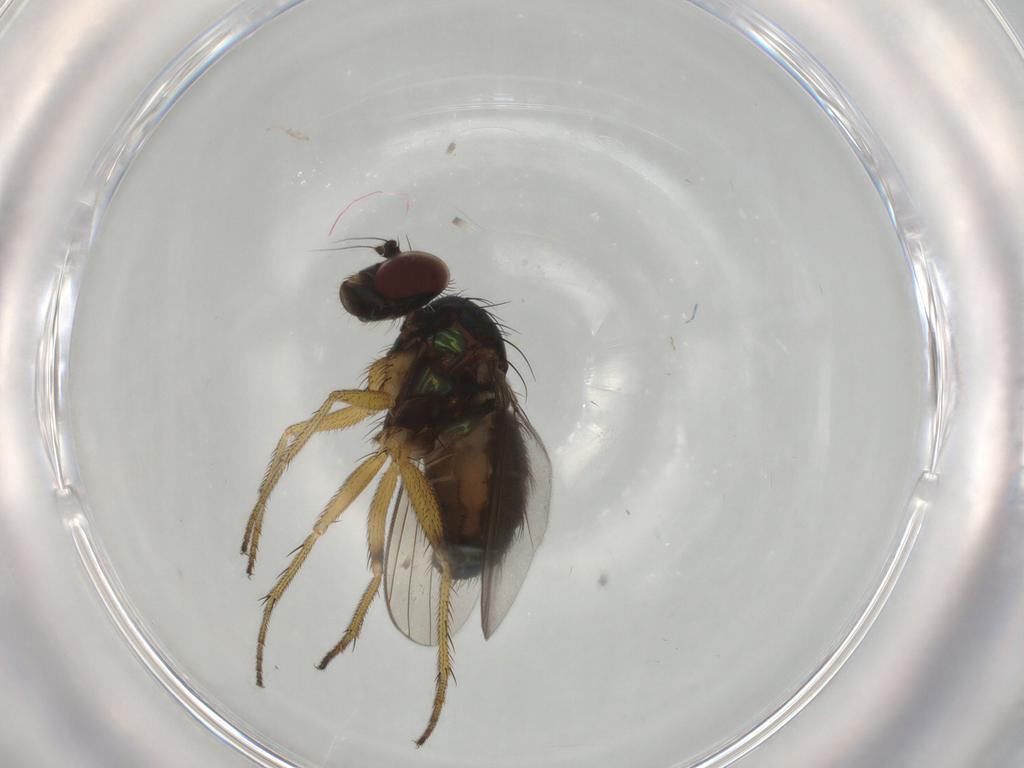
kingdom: Animalia
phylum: Arthropoda
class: Insecta
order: Diptera
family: Dolichopodidae
